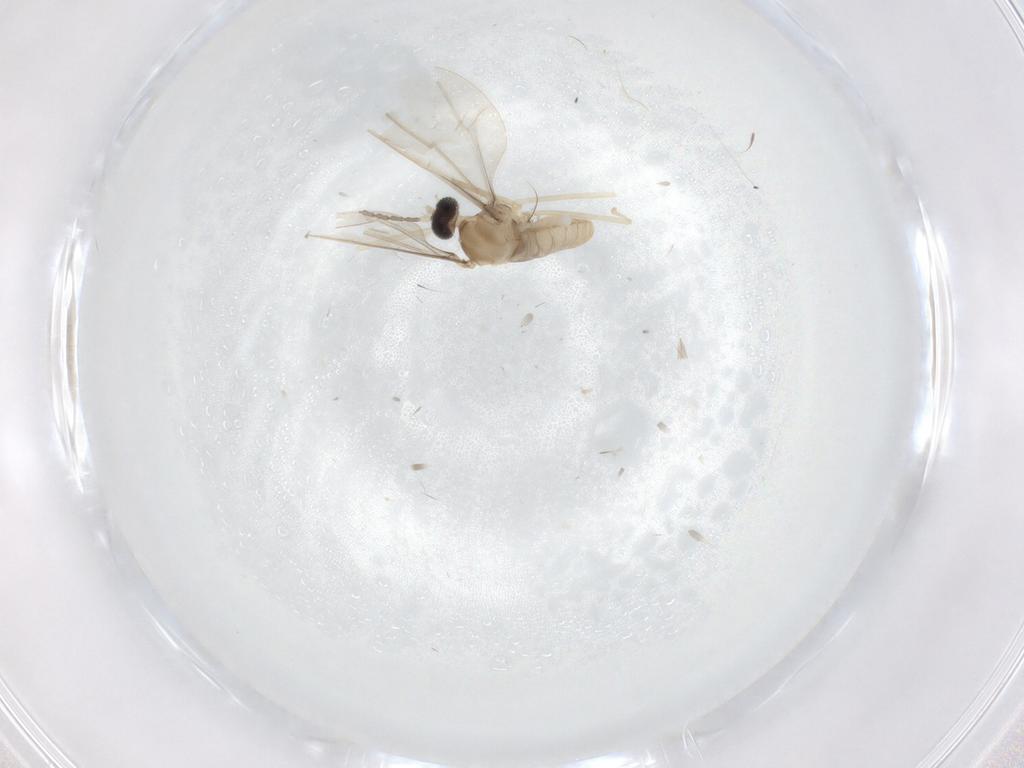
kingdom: Animalia
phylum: Arthropoda
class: Insecta
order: Diptera
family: Cecidomyiidae
